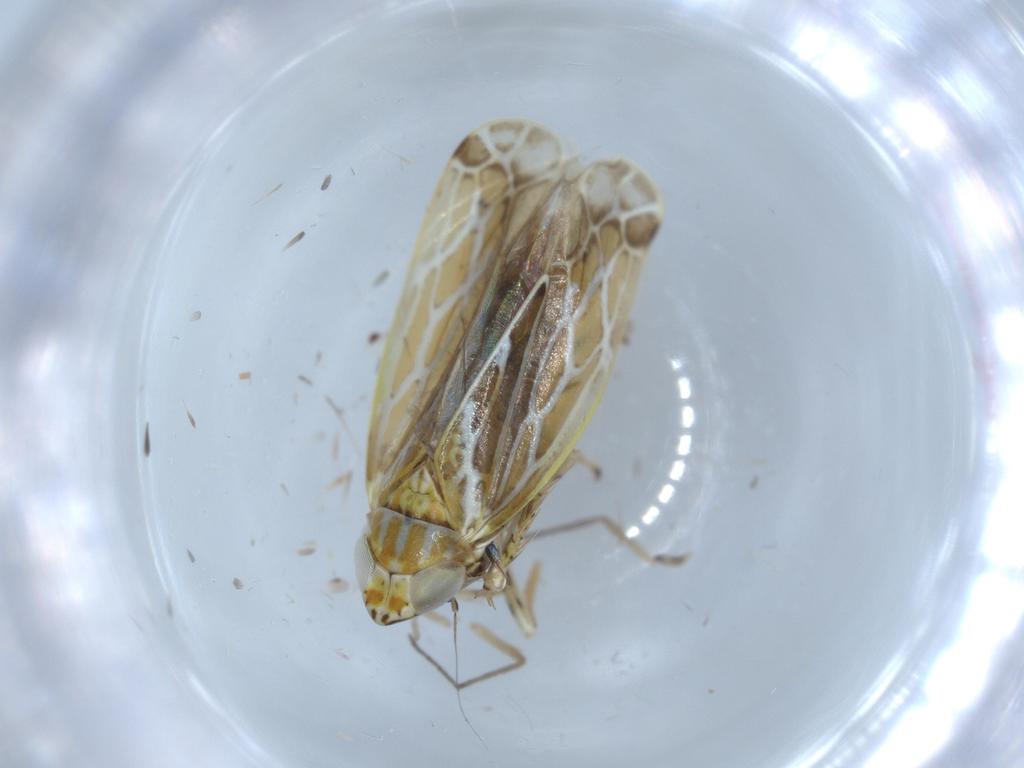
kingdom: Animalia
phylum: Arthropoda
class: Insecta
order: Hemiptera
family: Cicadellidae
